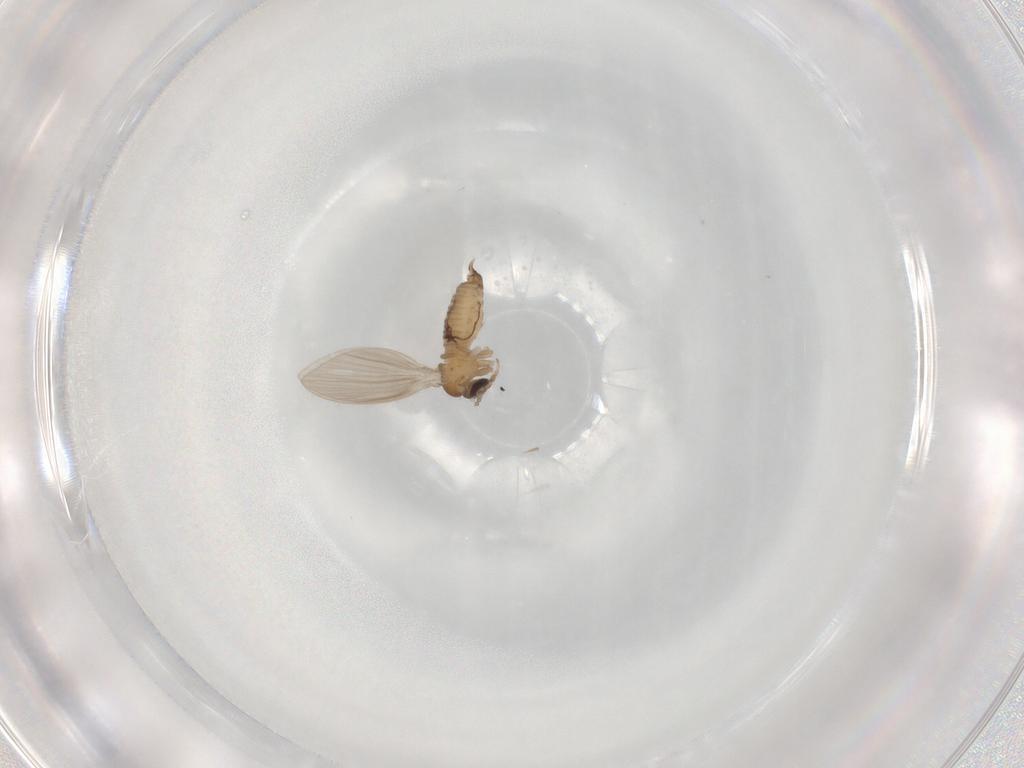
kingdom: Animalia
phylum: Arthropoda
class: Insecta
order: Diptera
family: Psychodidae
